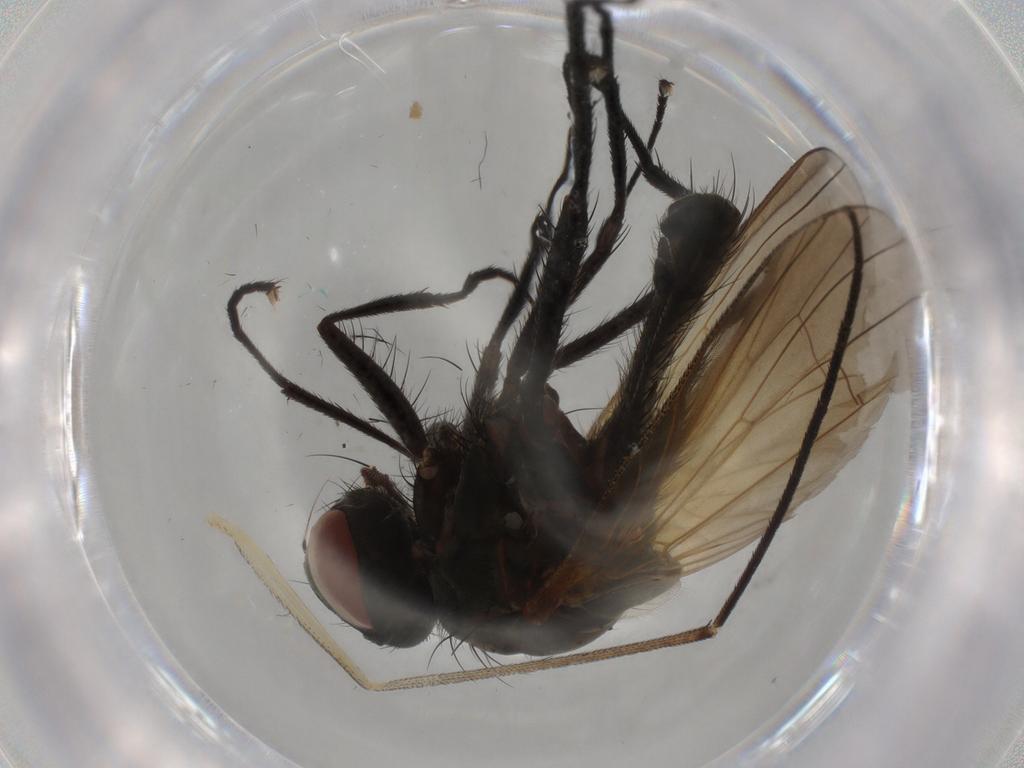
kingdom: Animalia
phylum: Arthropoda
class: Insecta
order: Diptera
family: Anthomyiidae
